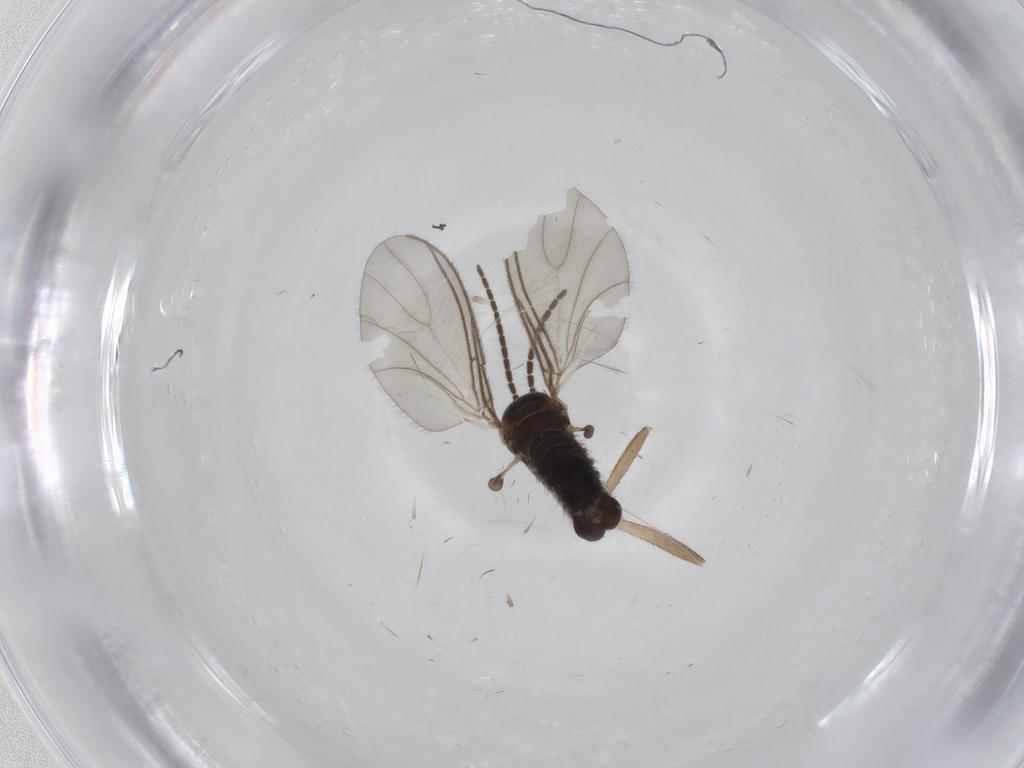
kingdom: Animalia
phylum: Arthropoda
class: Insecta
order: Diptera
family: Sciaridae
